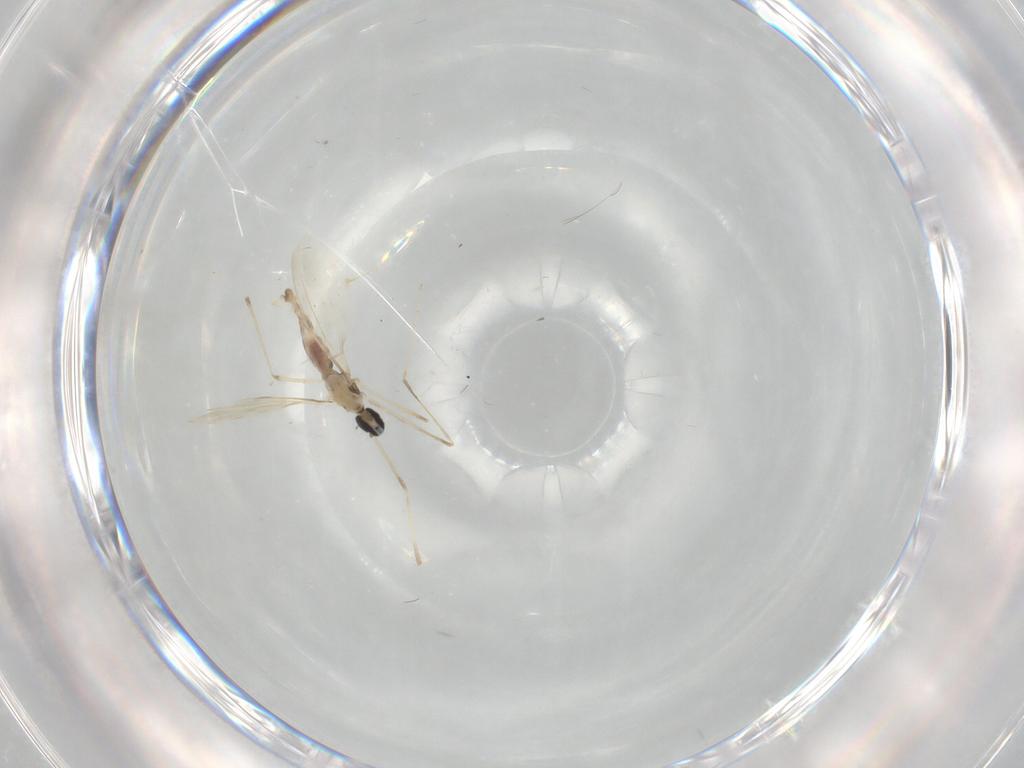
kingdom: Animalia
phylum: Arthropoda
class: Insecta
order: Diptera
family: Sciaridae
